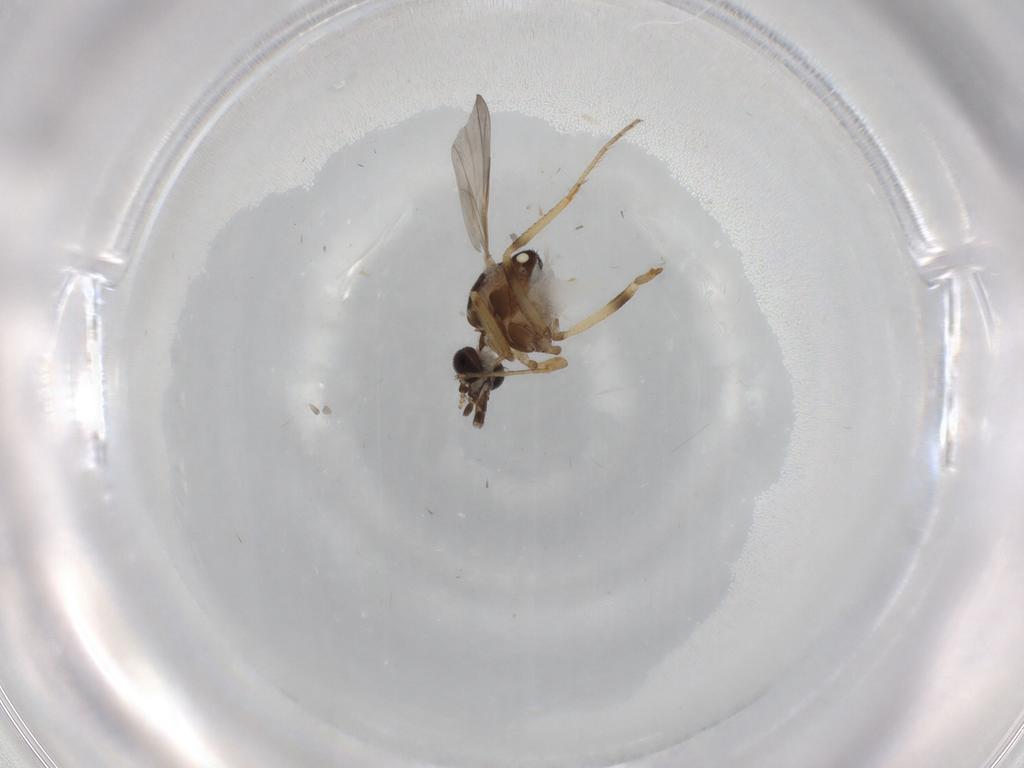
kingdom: Animalia
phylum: Arthropoda
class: Insecta
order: Diptera
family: Ceratopogonidae
